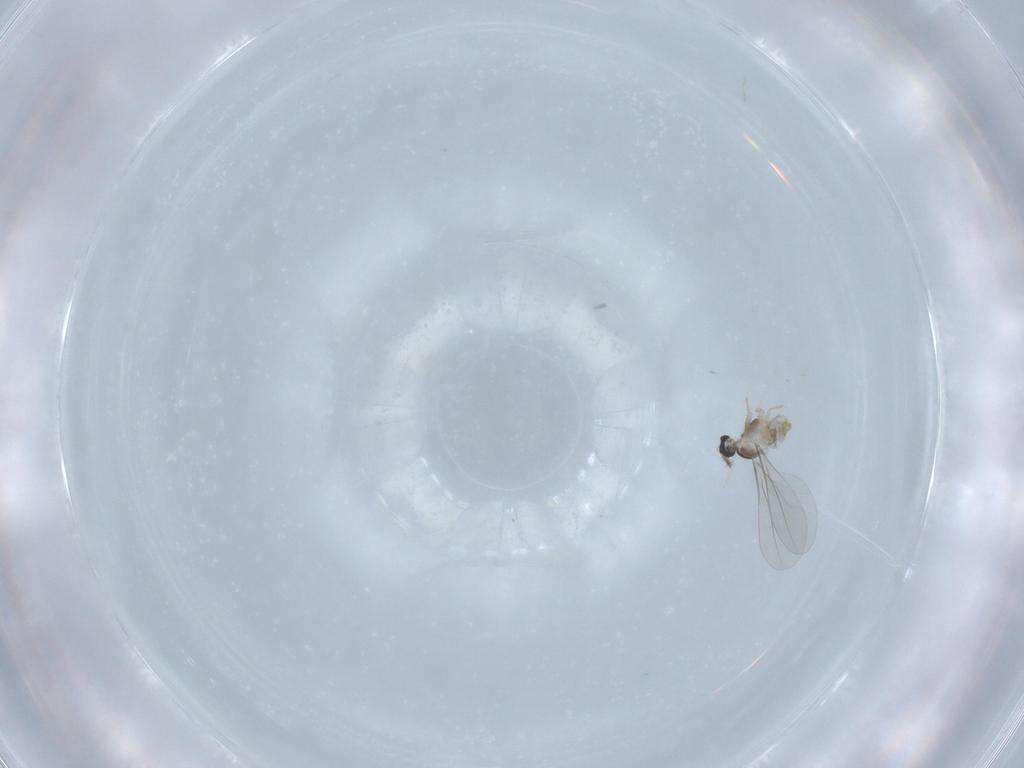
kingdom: Animalia
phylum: Arthropoda
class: Insecta
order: Diptera
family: Cecidomyiidae
